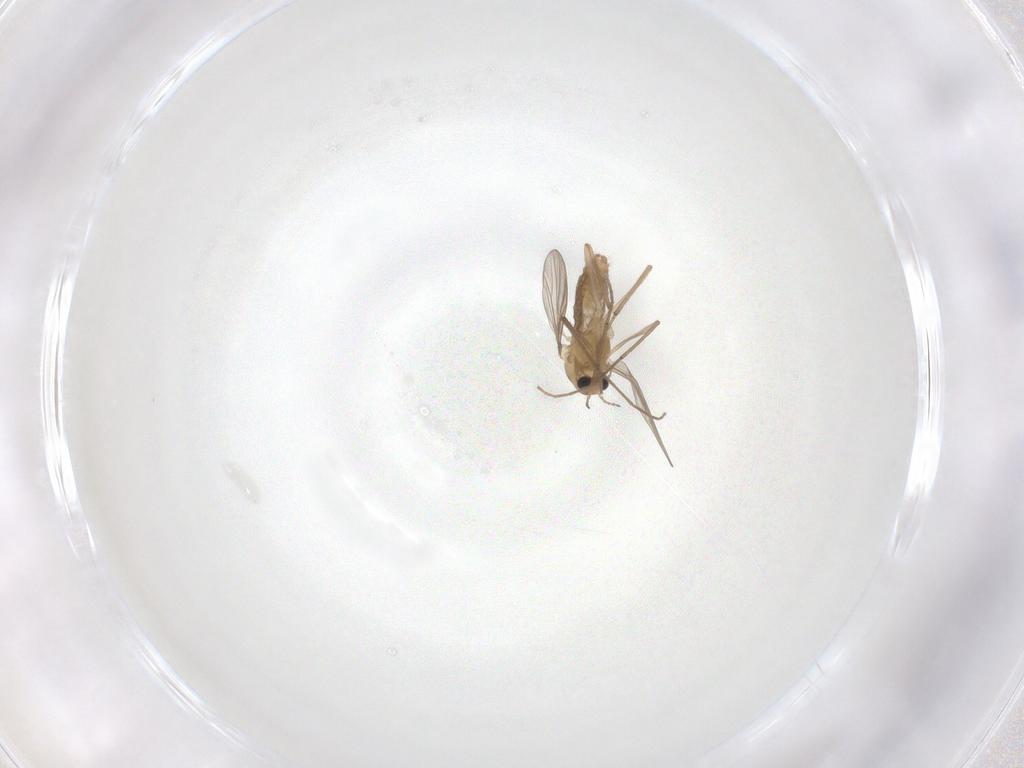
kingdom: Animalia
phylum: Arthropoda
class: Insecta
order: Diptera
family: Chironomidae
